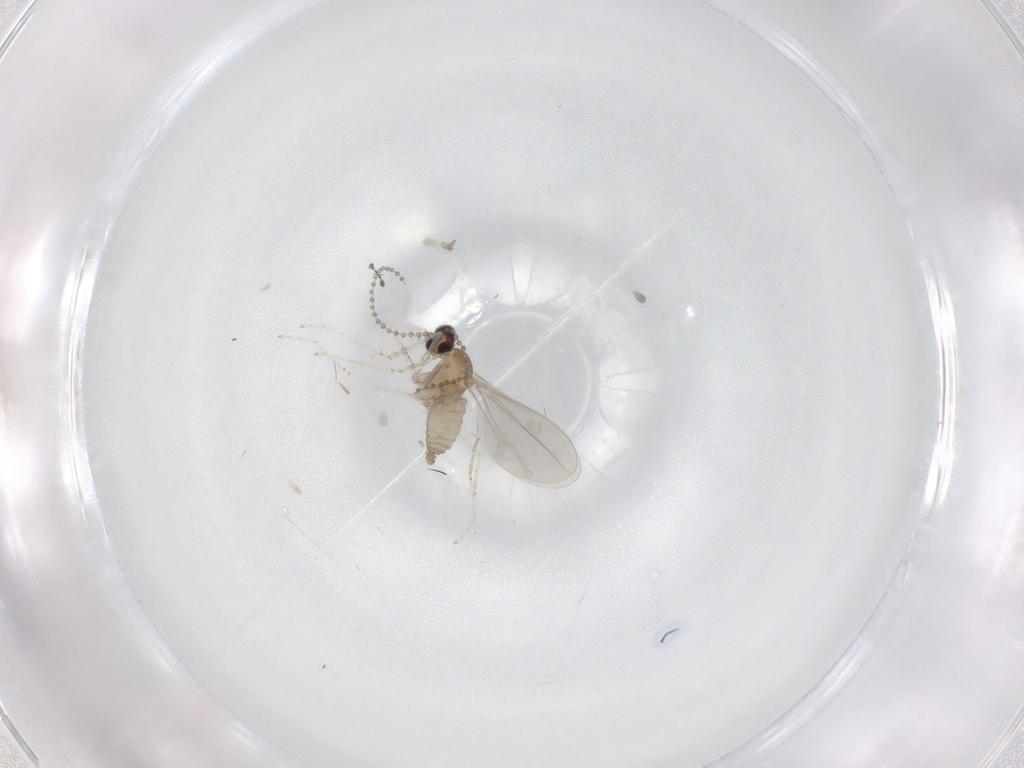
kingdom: Animalia
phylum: Arthropoda
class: Insecta
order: Diptera
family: Cecidomyiidae
